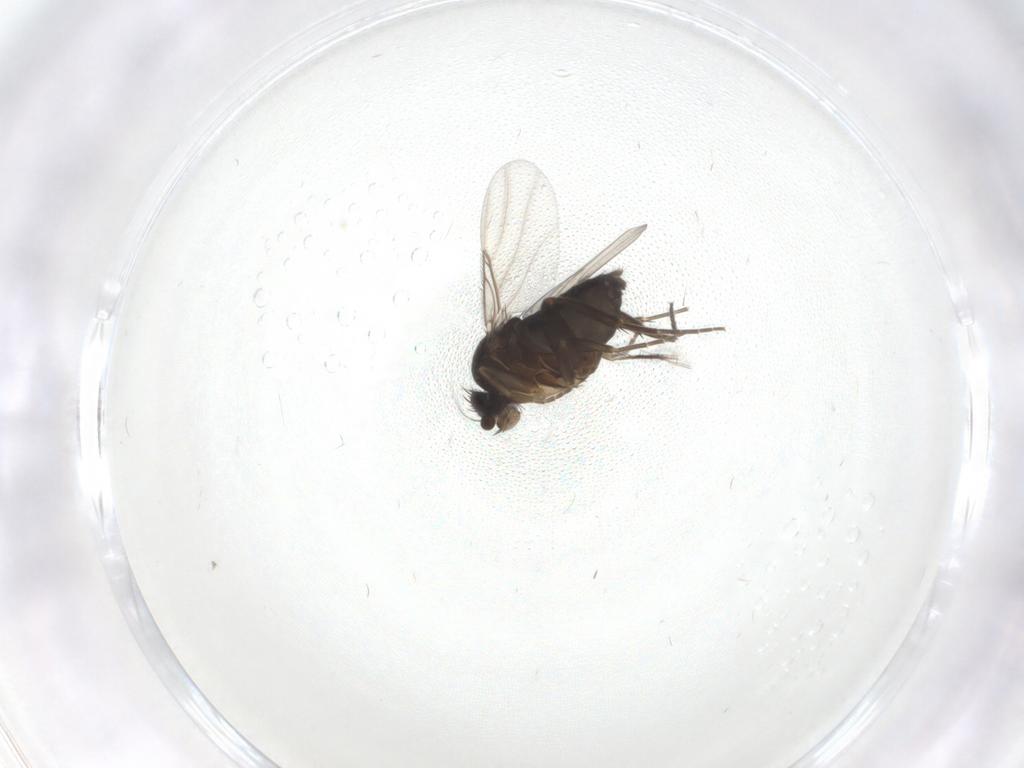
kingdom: Animalia
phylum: Arthropoda
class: Insecta
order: Diptera
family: Phoridae
